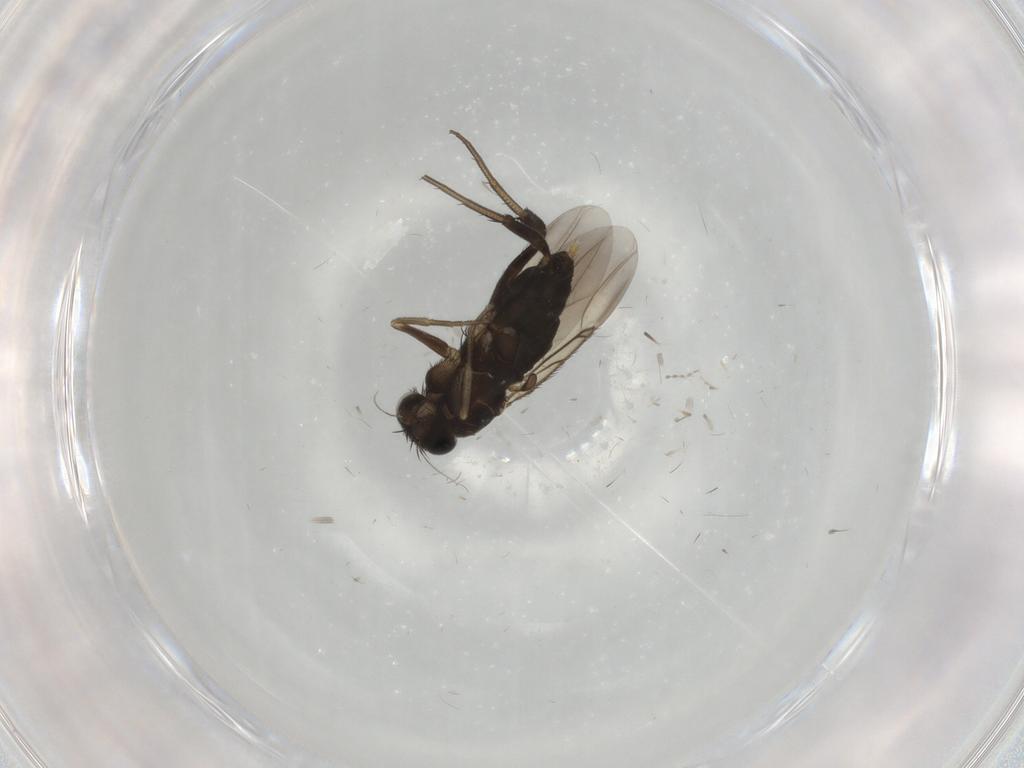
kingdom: Animalia
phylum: Arthropoda
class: Insecta
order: Diptera
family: Phoridae
